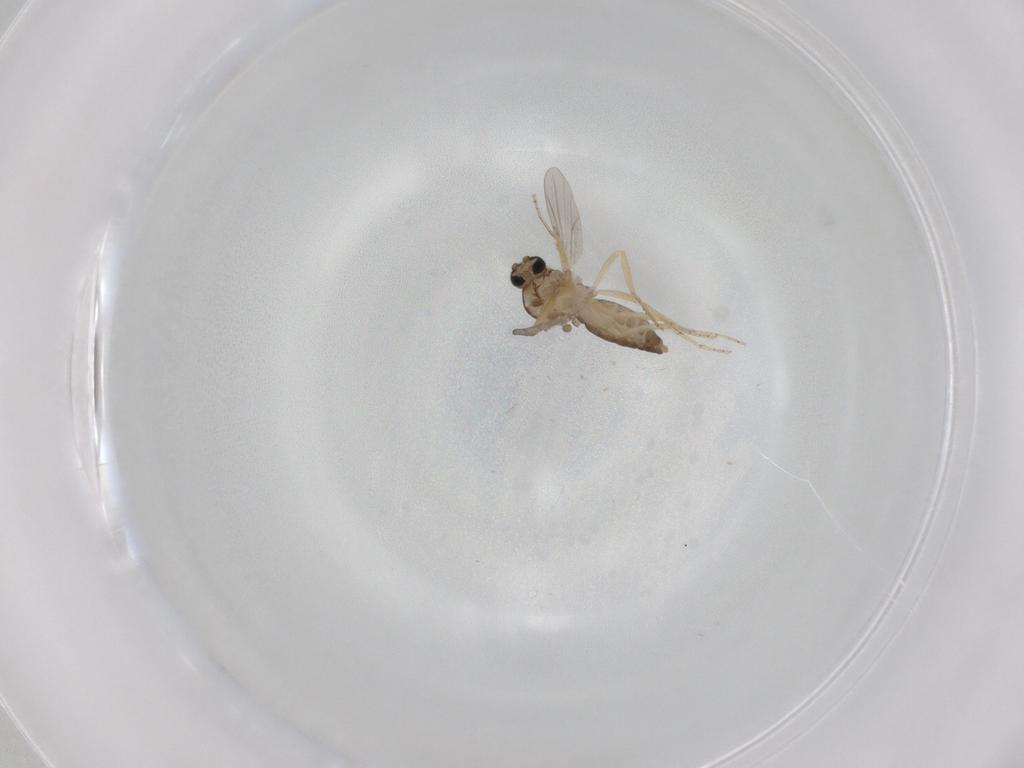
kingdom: Animalia
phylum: Arthropoda
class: Insecta
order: Diptera
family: Ceratopogonidae
